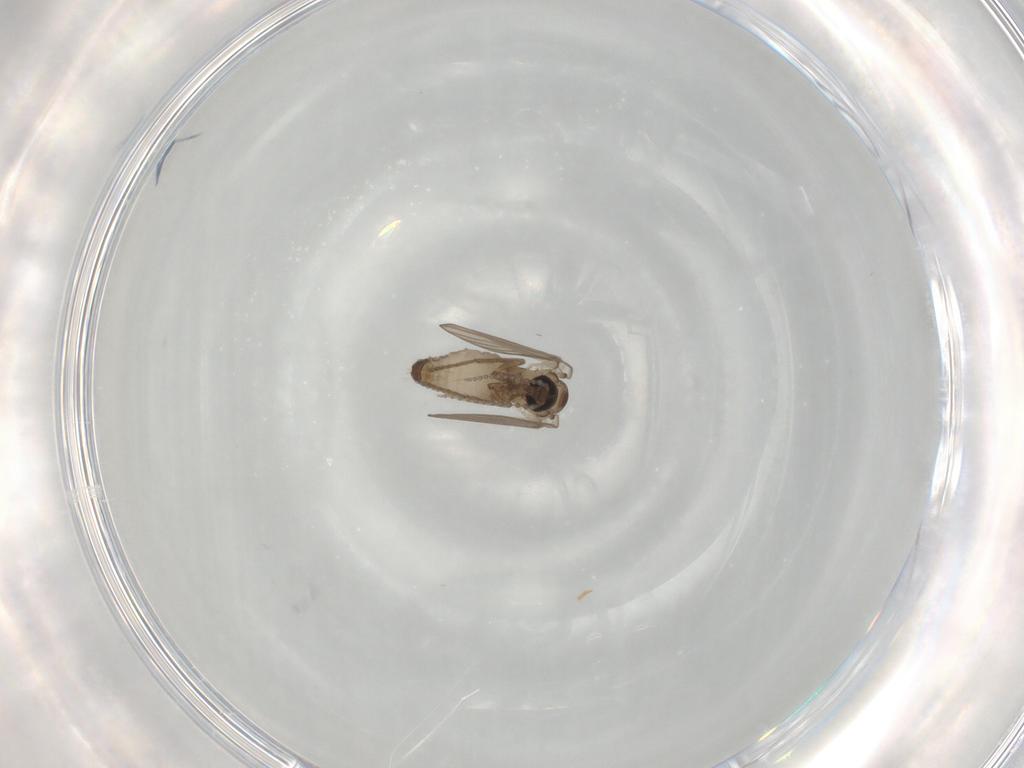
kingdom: Animalia
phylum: Arthropoda
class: Insecta
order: Diptera
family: Psychodidae
